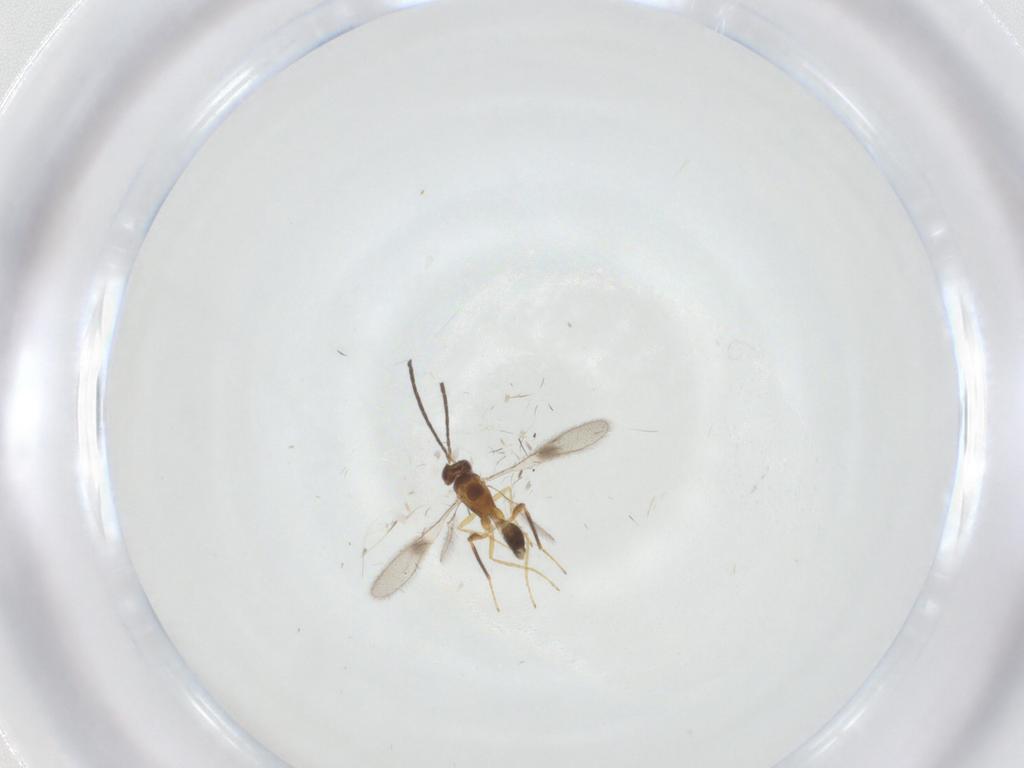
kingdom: Animalia
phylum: Arthropoda
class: Insecta
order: Hymenoptera
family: Mymaridae
